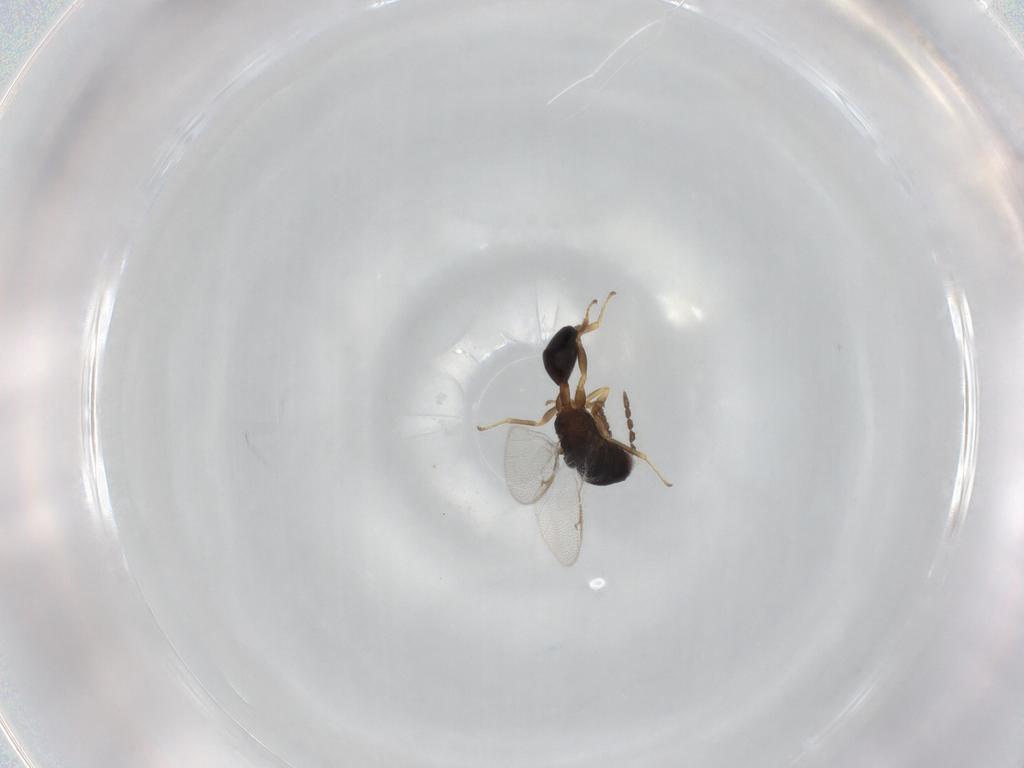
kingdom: Animalia
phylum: Arthropoda
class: Insecta
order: Hymenoptera
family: Eurytomidae
